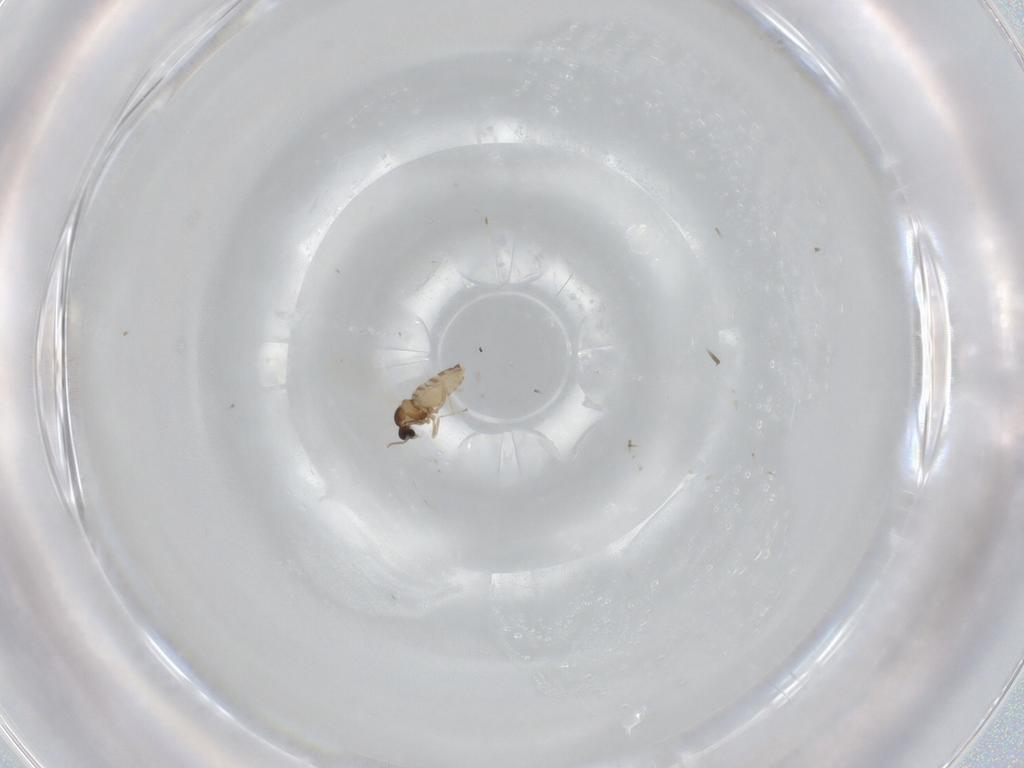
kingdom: Animalia
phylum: Arthropoda
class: Insecta
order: Diptera
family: Cecidomyiidae
